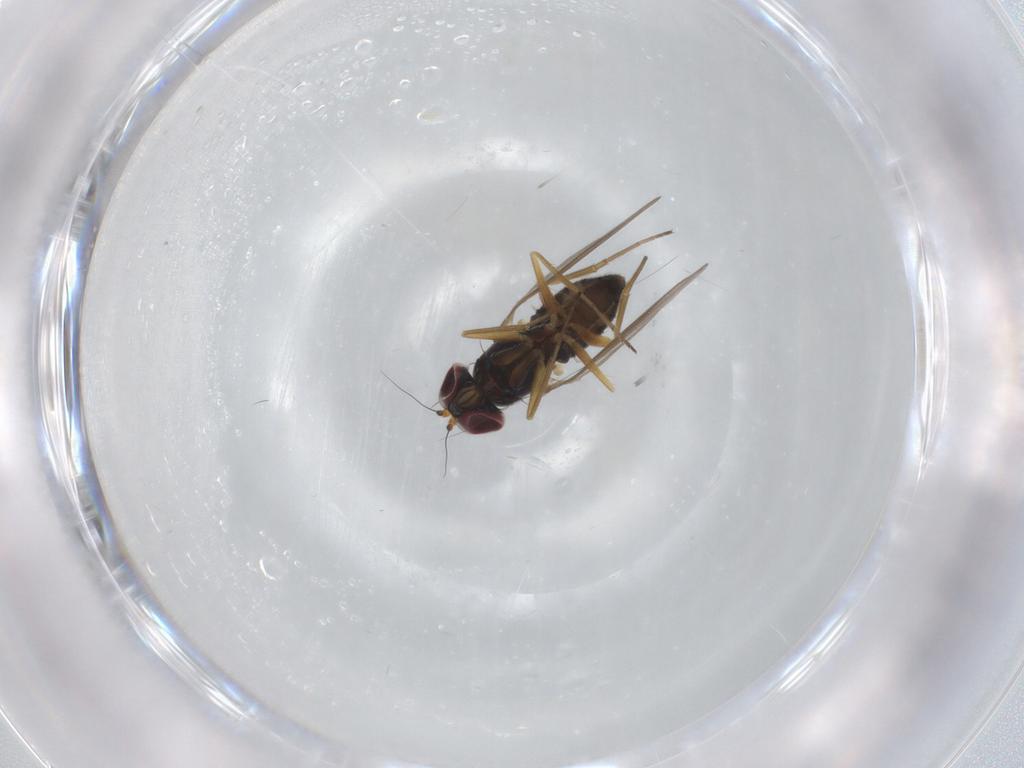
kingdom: Animalia
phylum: Arthropoda
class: Insecta
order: Diptera
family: Dolichopodidae
